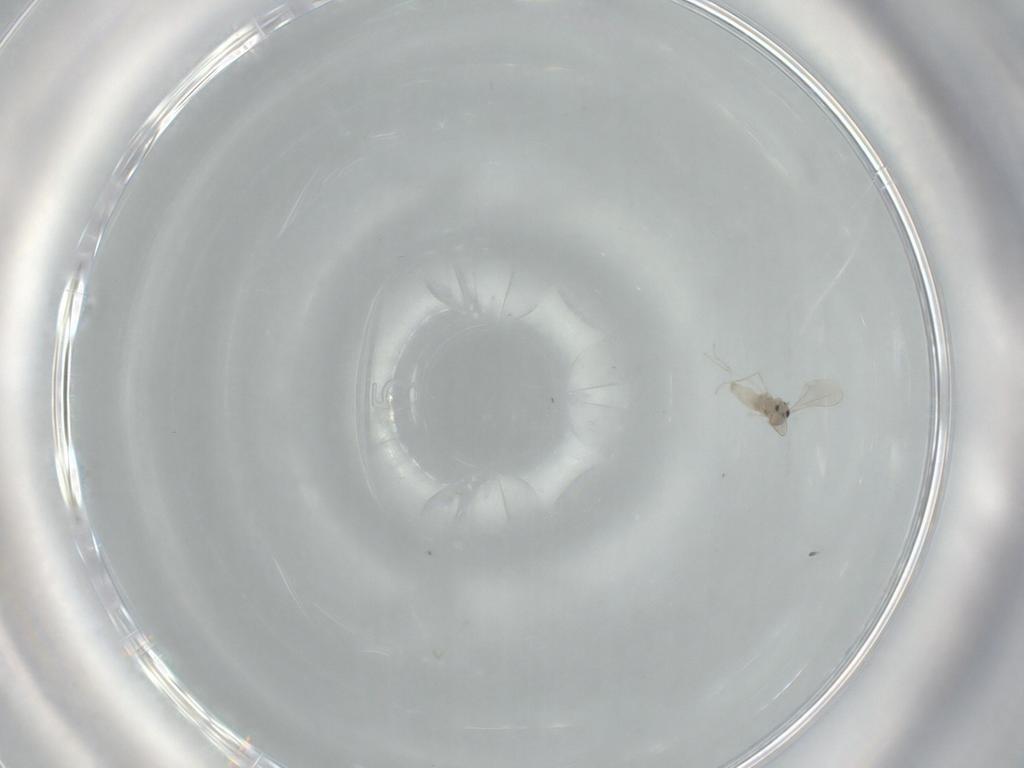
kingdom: Animalia
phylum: Arthropoda
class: Insecta
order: Diptera
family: Cecidomyiidae
